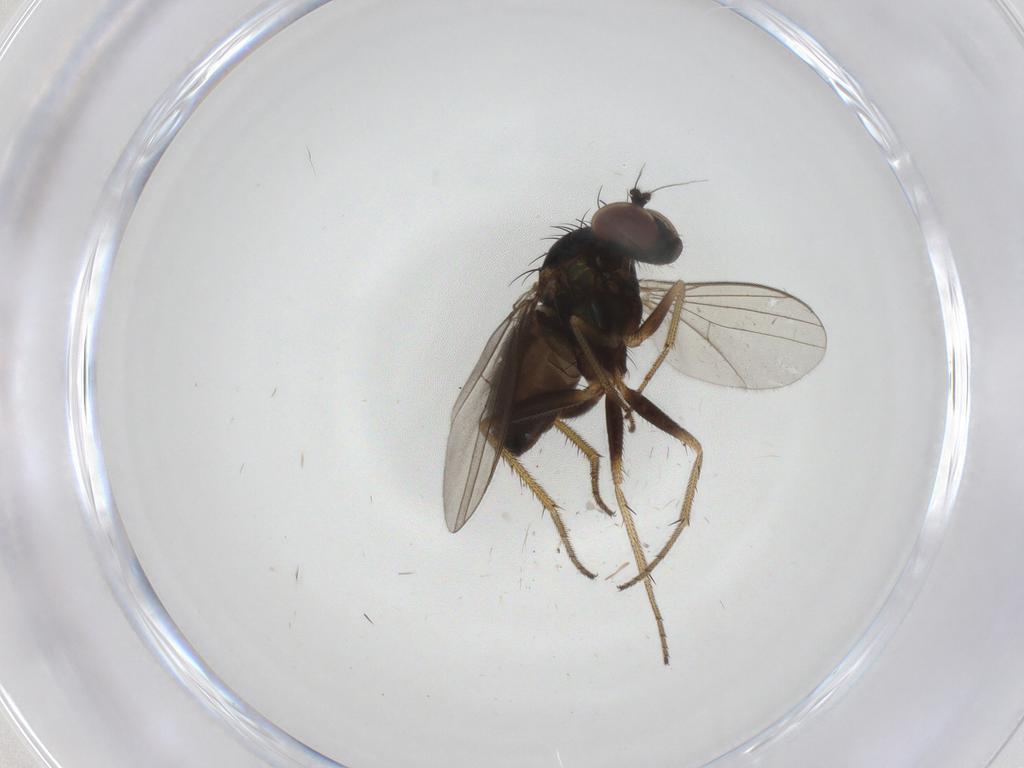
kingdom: Animalia
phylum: Arthropoda
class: Insecta
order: Diptera
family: Dolichopodidae
